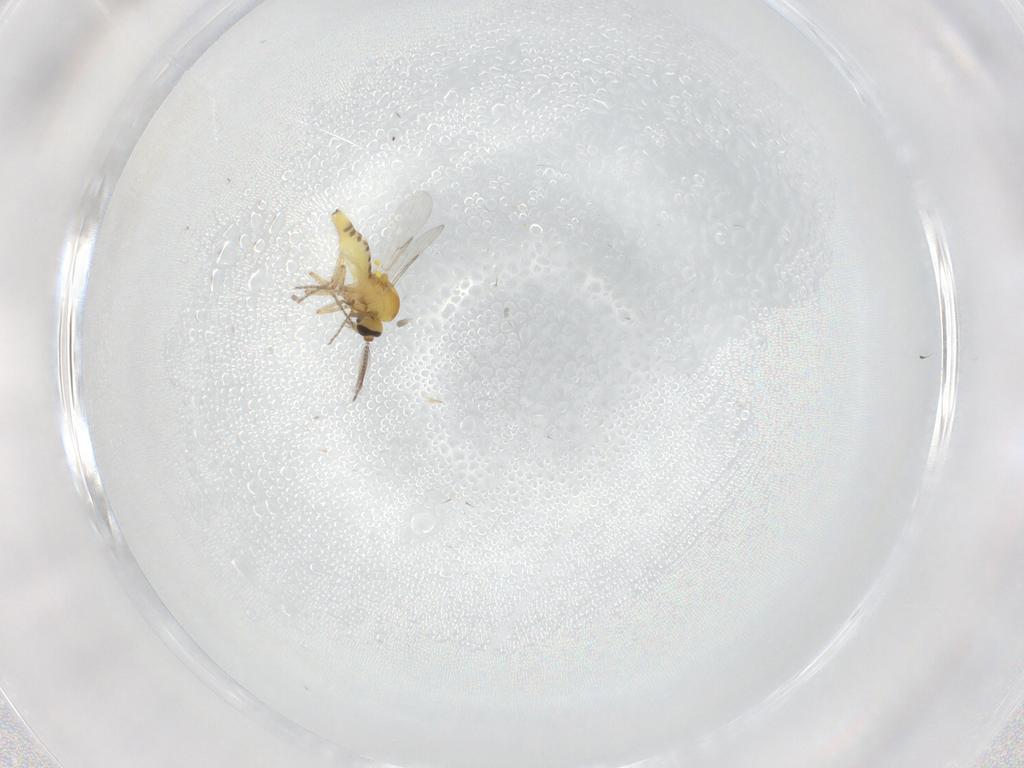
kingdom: Animalia
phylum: Arthropoda
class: Insecta
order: Diptera
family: Ceratopogonidae
